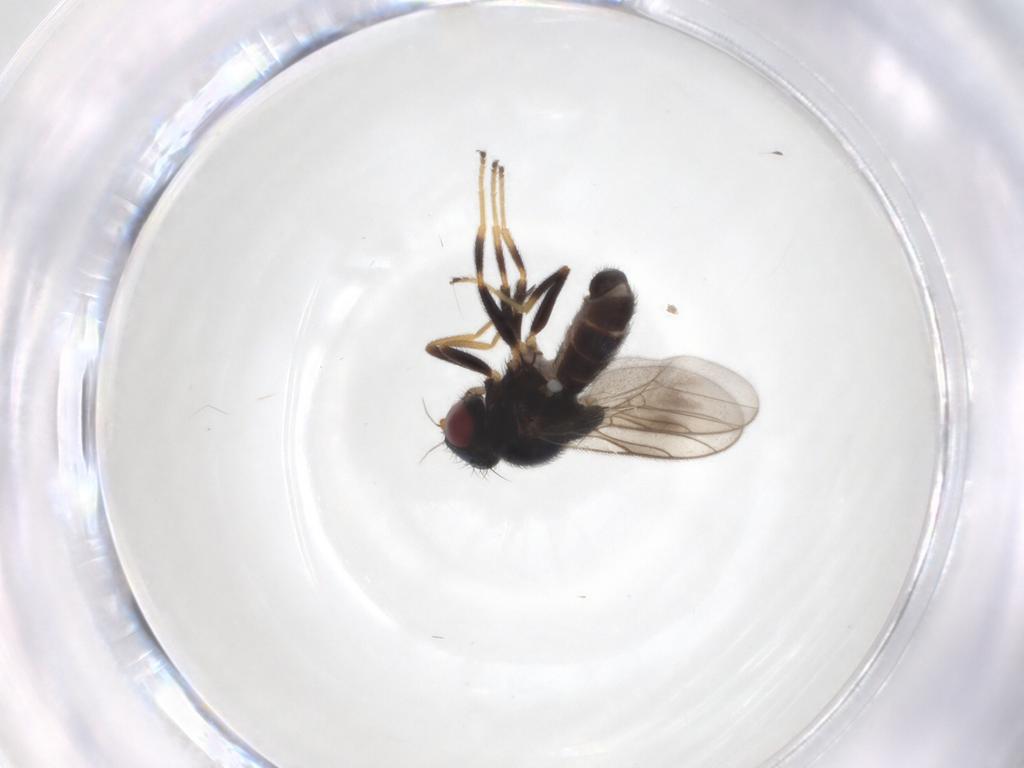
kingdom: Animalia
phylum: Arthropoda
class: Insecta
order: Diptera
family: Chloropidae
